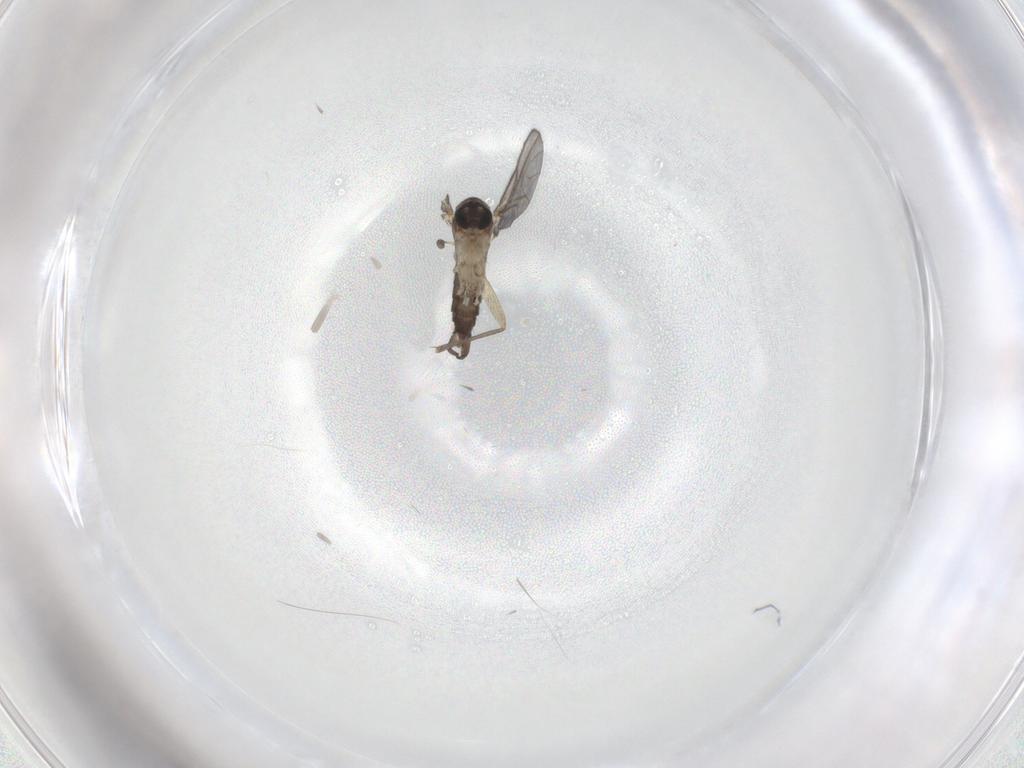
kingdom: Animalia
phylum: Arthropoda
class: Insecta
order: Diptera
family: Sciaridae
